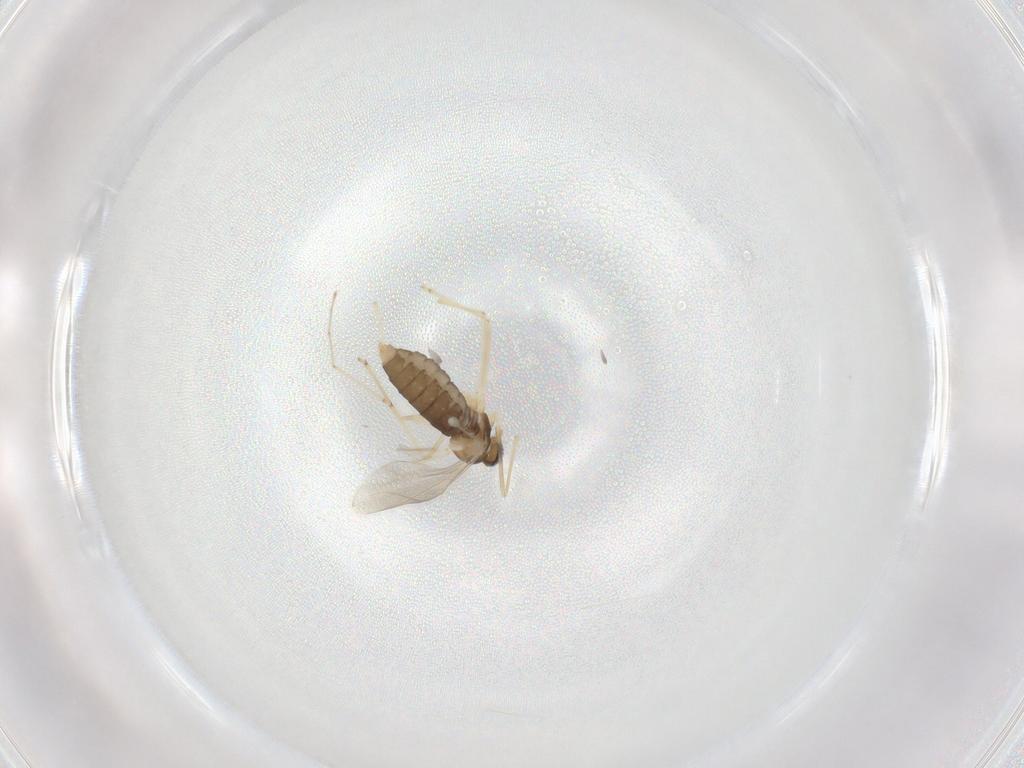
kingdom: Animalia
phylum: Arthropoda
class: Insecta
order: Diptera
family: Cecidomyiidae
